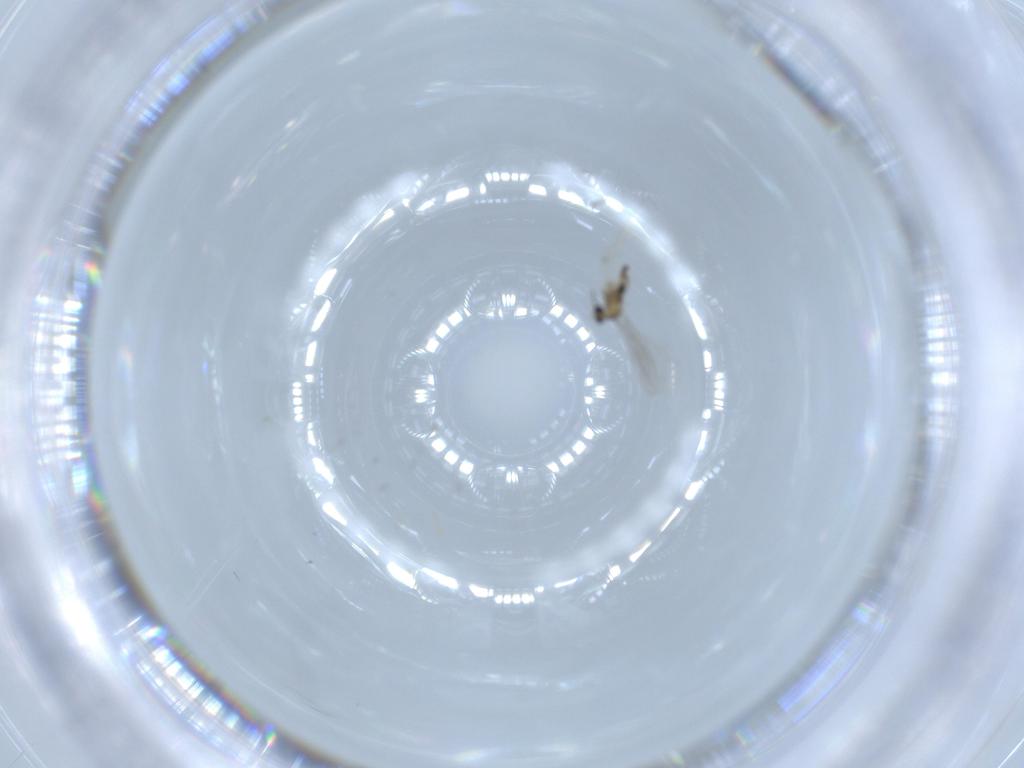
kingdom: Animalia
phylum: Arthropoda
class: Insecta
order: Diptera
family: Cecidomyiidae
